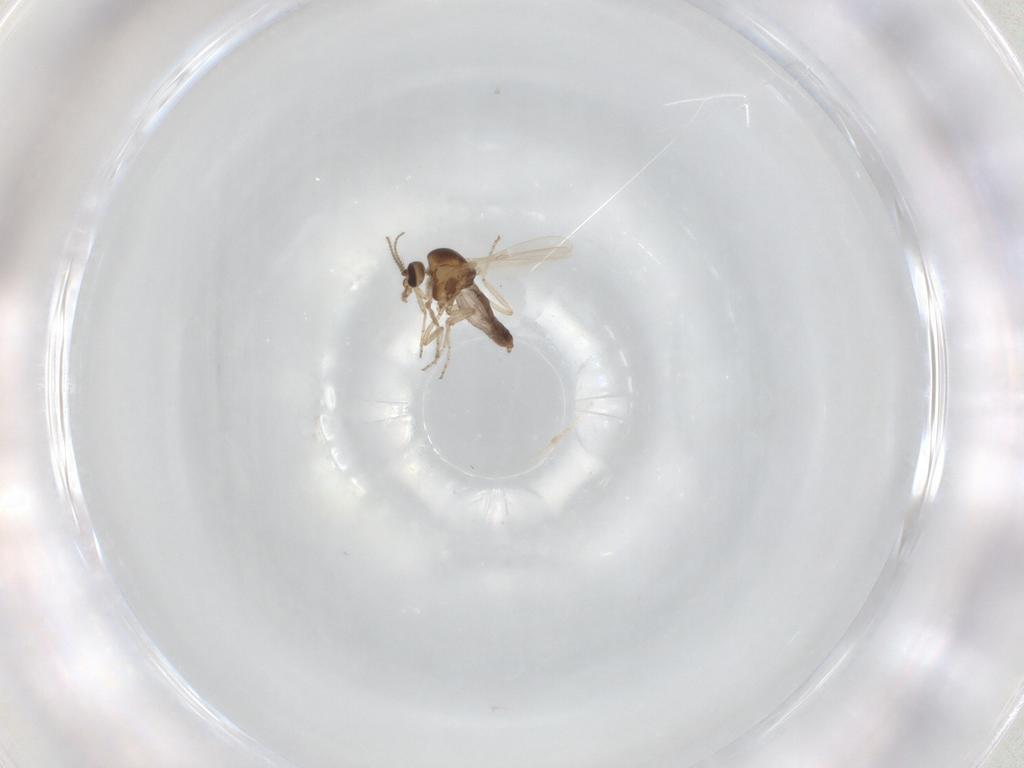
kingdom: Animalia
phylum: Arthropoda
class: Insecta
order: Diptera
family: Ceratopogonidae
